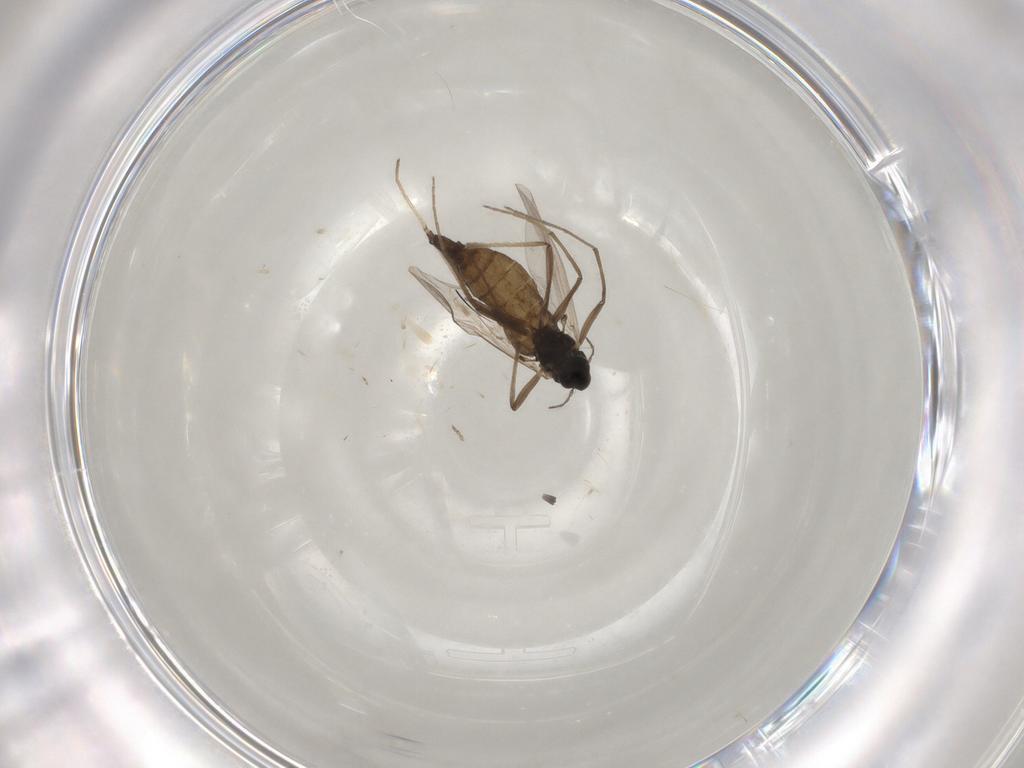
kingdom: Animalia
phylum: Arthropoda
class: Insecta
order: Diptera
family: Chironomidae
